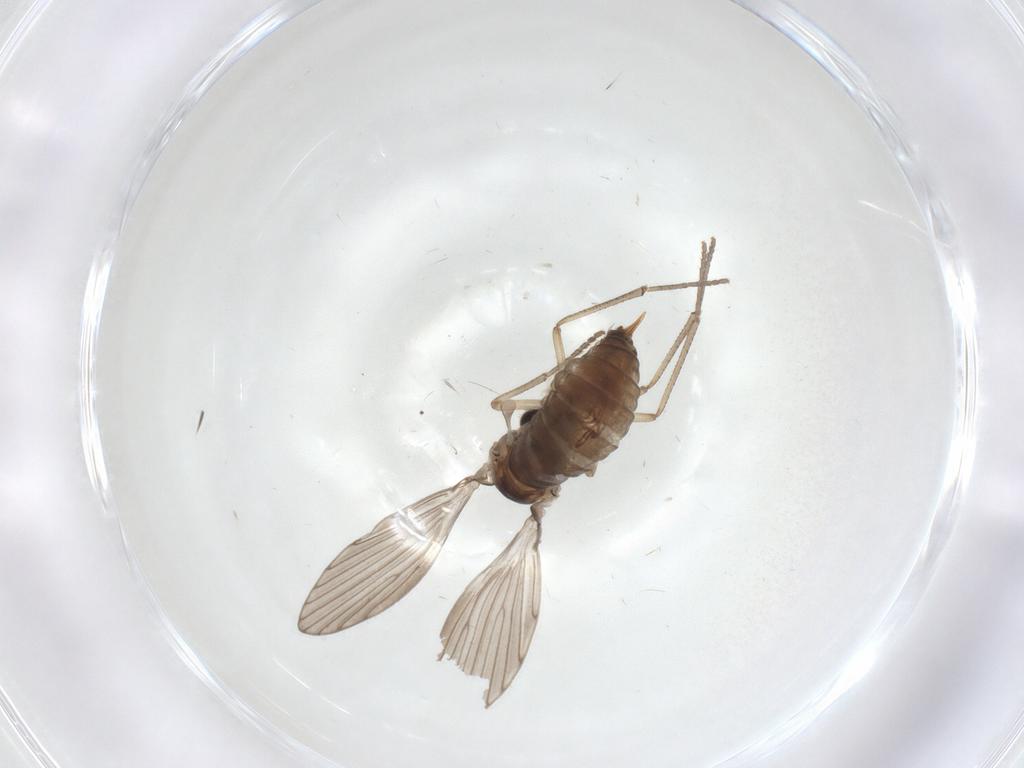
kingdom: Animalia
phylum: Arthropoda
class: Insecta
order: Diptera
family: Psychodidae
